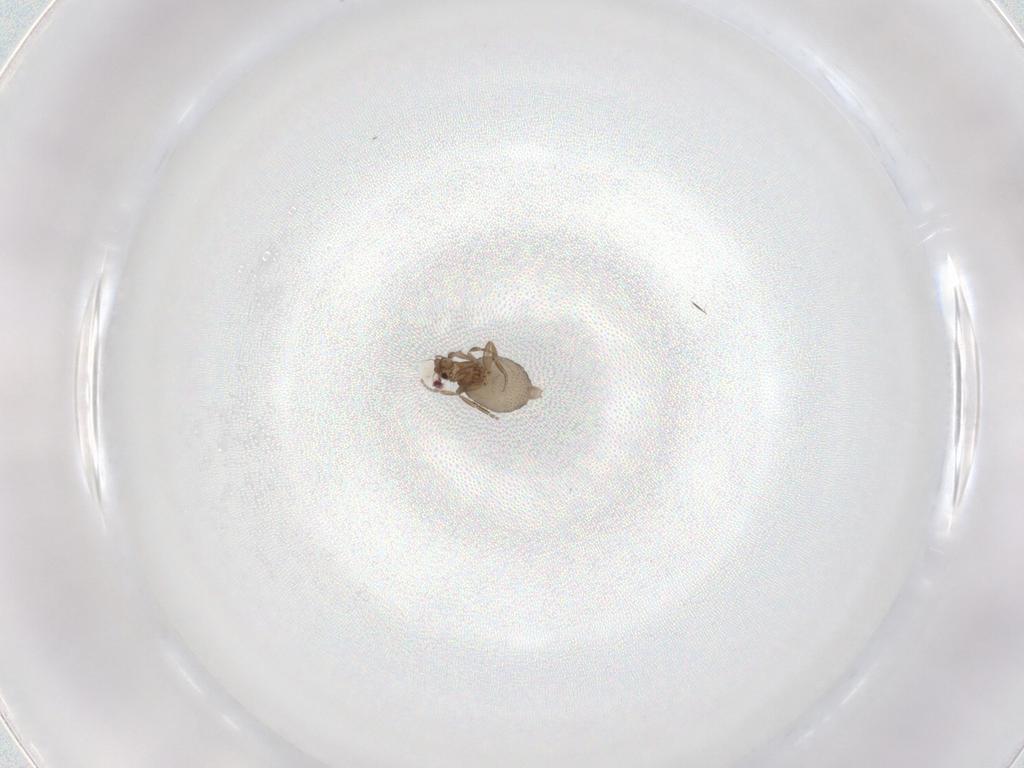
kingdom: Animalia
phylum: Arthropoda
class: Insecta
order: Diptera
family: Phoridae
